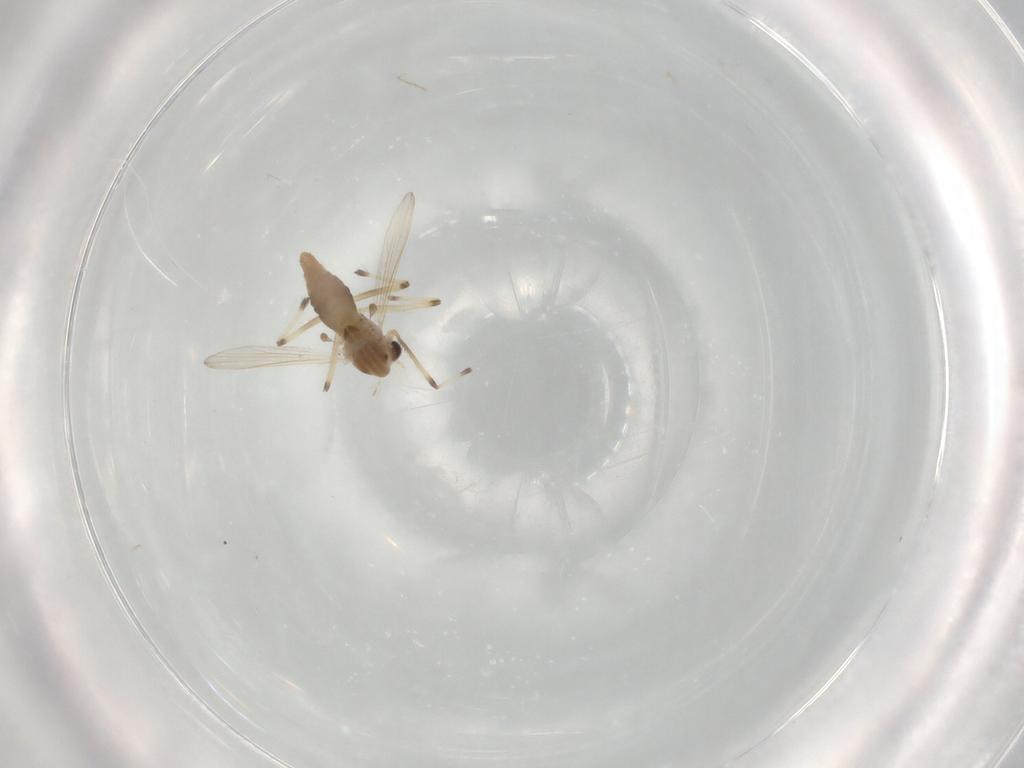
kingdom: Animalia
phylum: Arthropoda
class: Insecta
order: Diptera
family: Chironomidae
